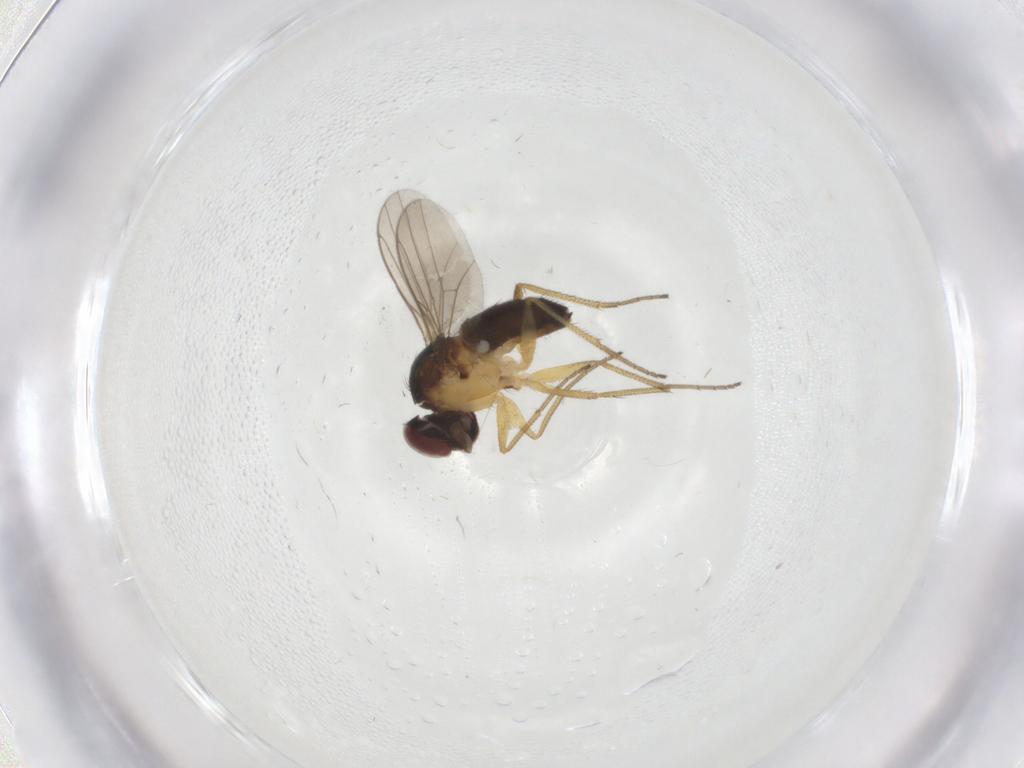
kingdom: Animalia
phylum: Arthropoda
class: Insecta
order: Diptera
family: Dolichopodidae
